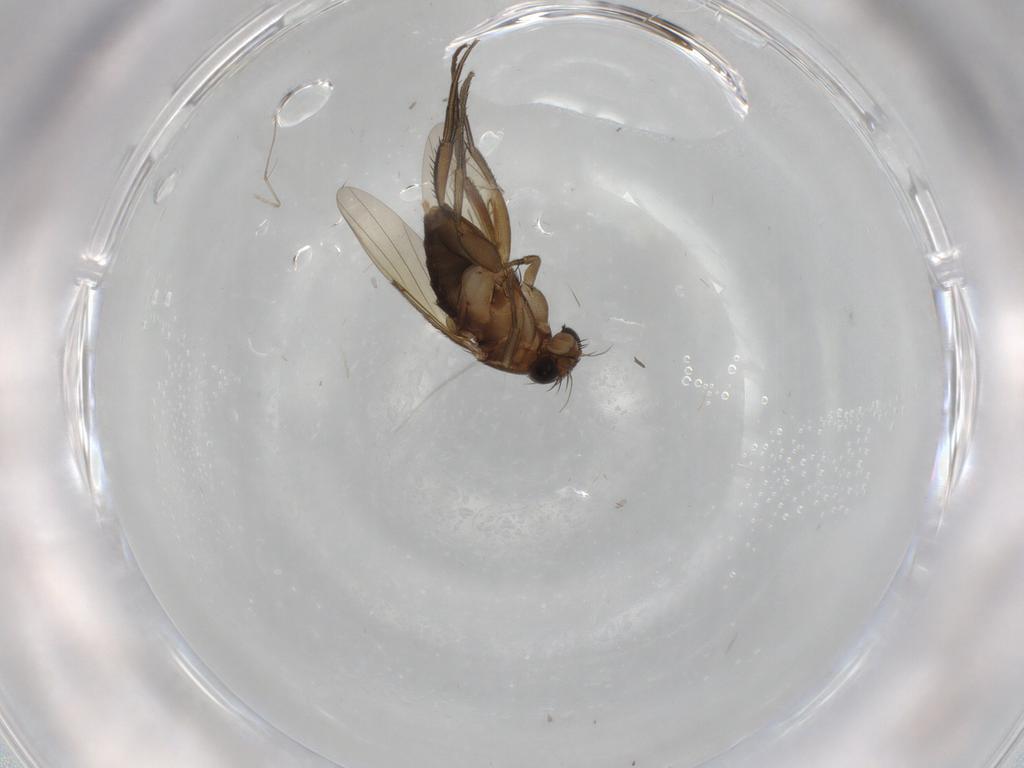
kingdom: Animalia
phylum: Arthropoda
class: Insecta
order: Diptera
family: Phoridae
